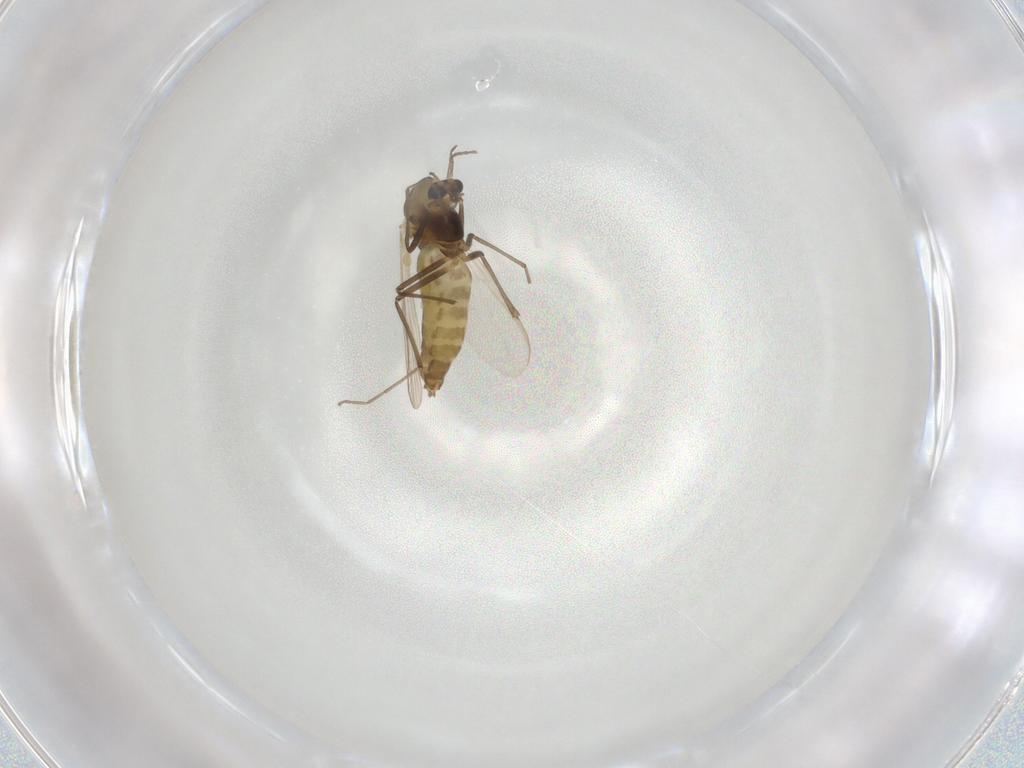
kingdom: Animalia
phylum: Arthropoda
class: Insecta
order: Diptera
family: Chironomidae
